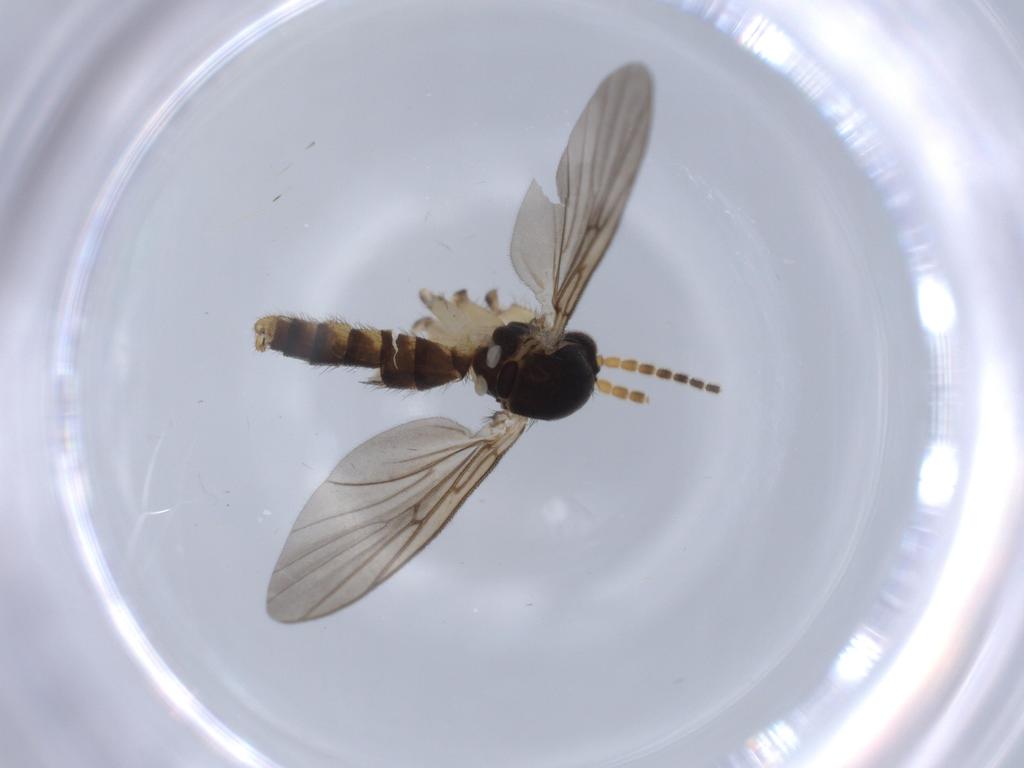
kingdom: Animalia
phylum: Arthropoda
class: Insecta
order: Diptera
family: Sciaridae
